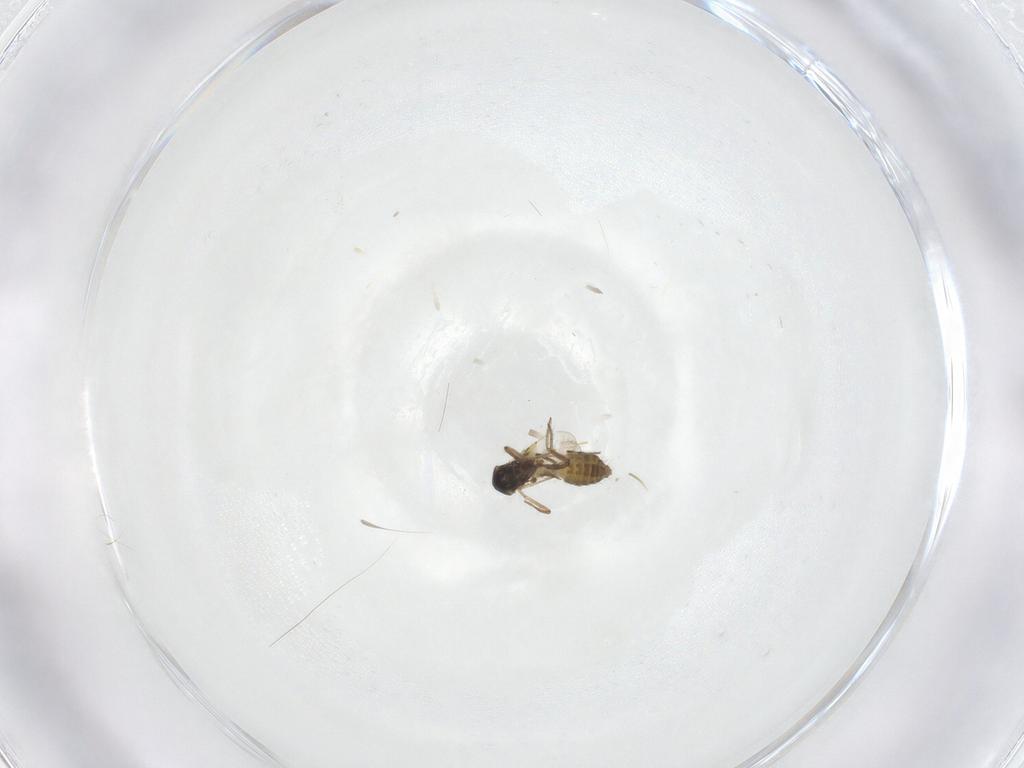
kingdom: Animalia
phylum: Arthropoda
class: Insecta
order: Diptera
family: Ceratopogonidae
